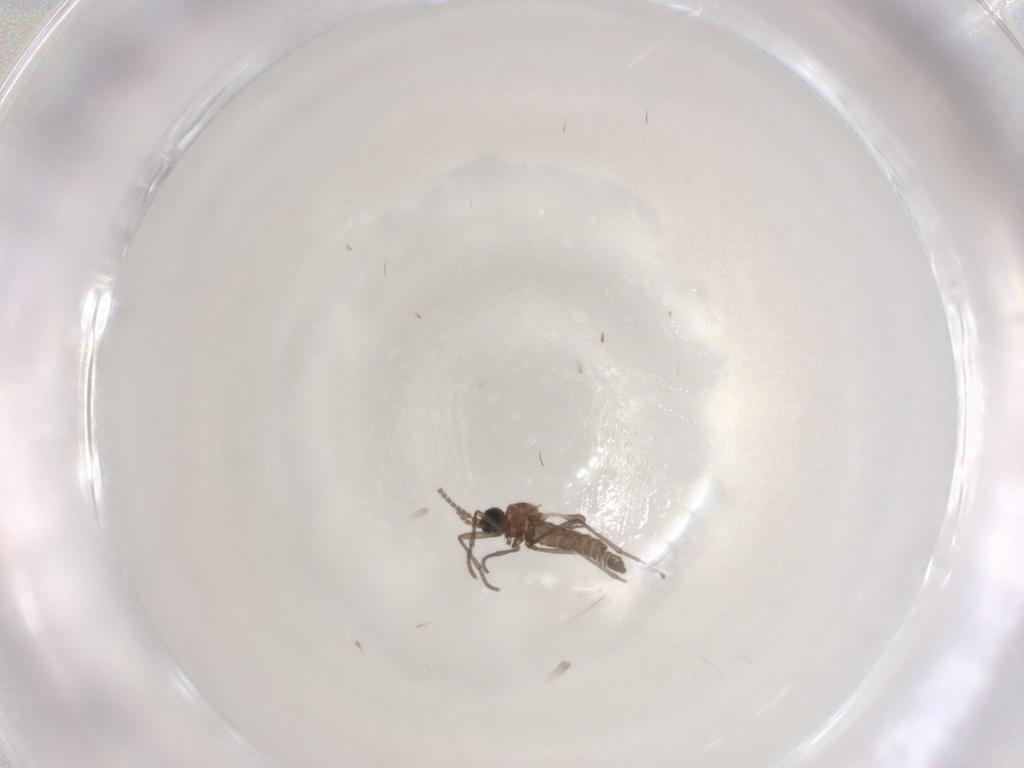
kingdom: Animalia
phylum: Arthropoda
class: Insecta
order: Diptera
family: Sciaridae
